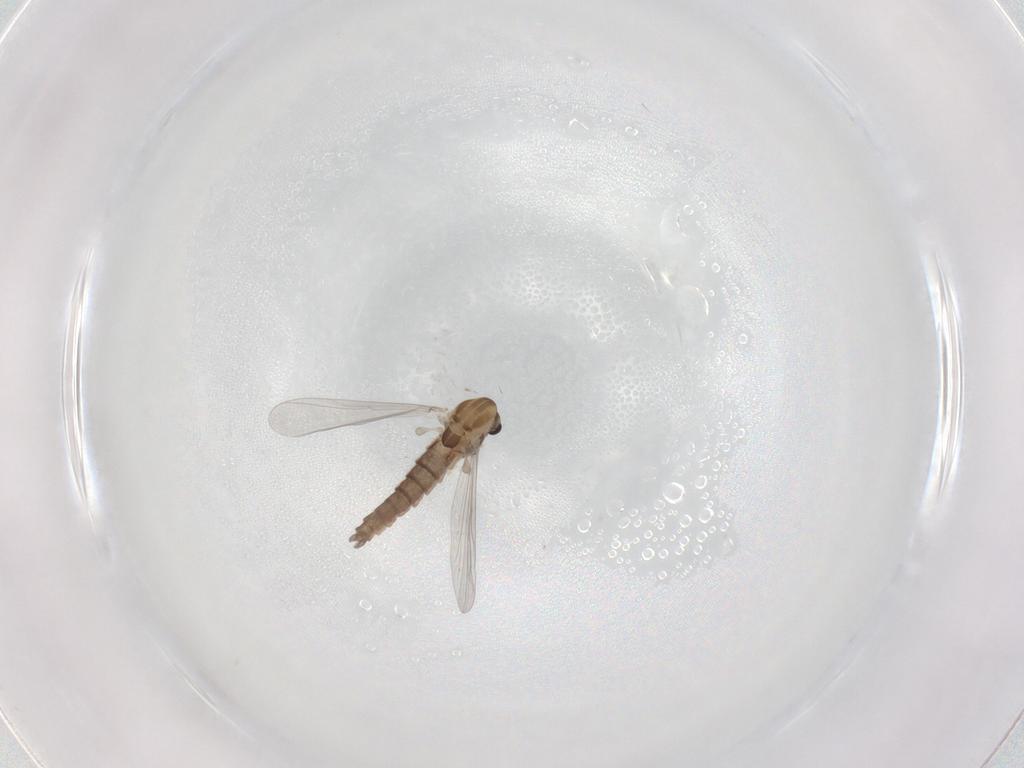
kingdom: Animalia
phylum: Arthropoda
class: Insecta
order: Diptera
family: Chironomidae
